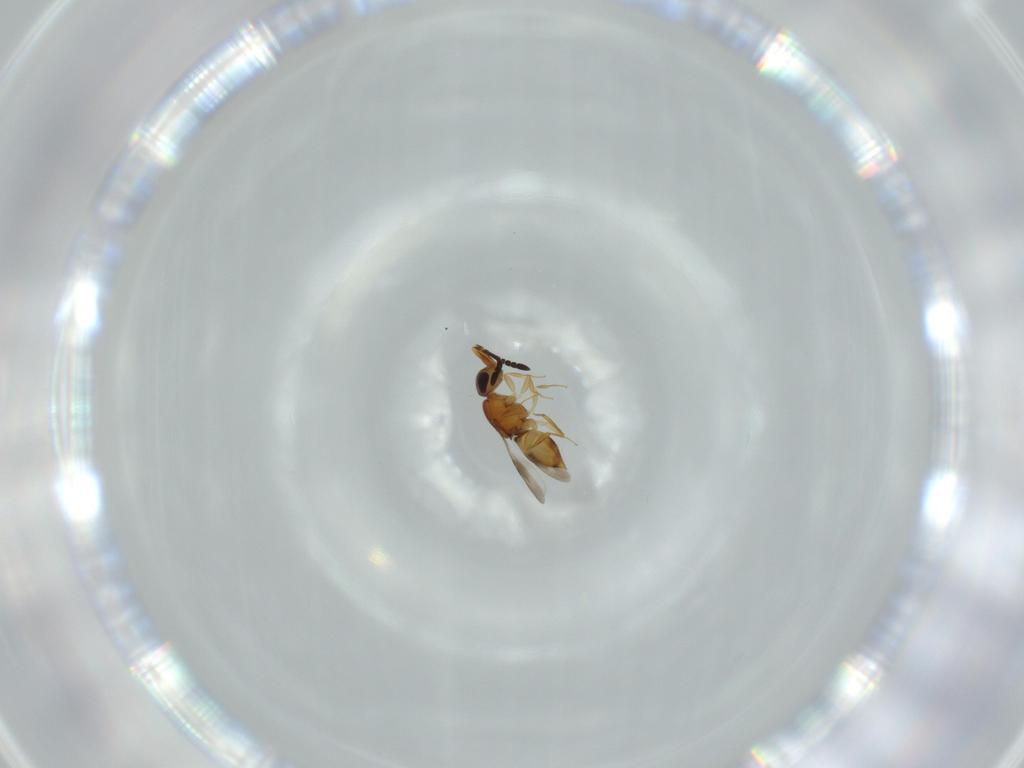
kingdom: Animalia
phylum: Arthropoda
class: Insecta
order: Hymenoptera
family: Ceraphronidae
